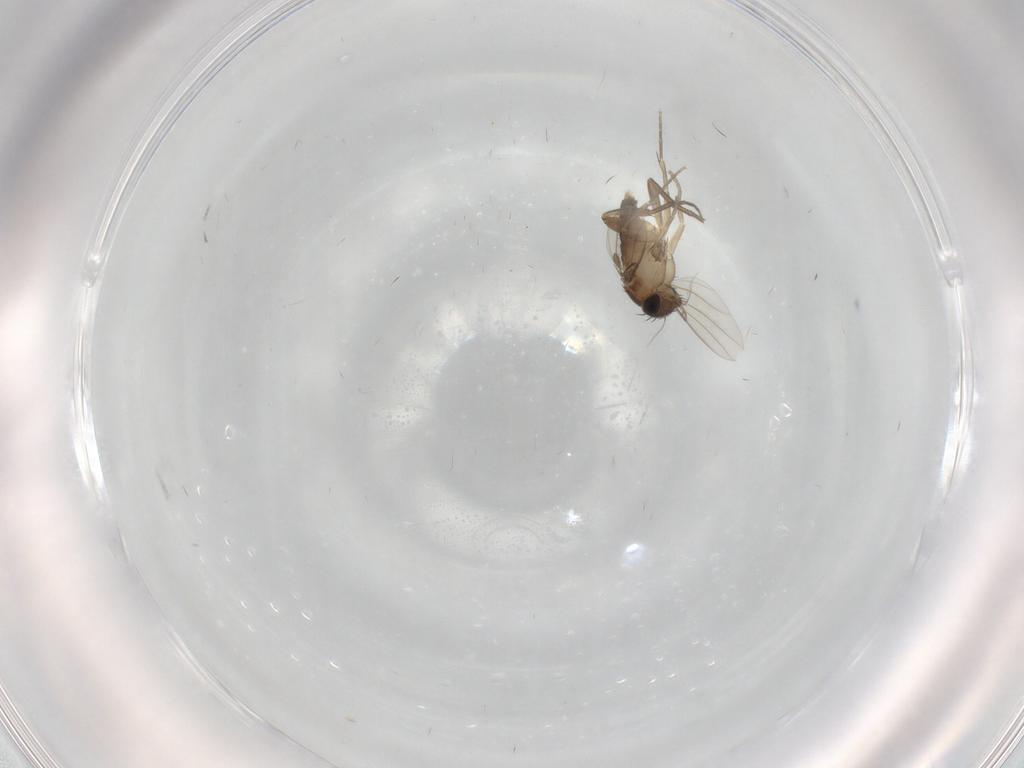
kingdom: Animalia
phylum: Arthropoda
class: Insecta
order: Diptera
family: Phoridae
